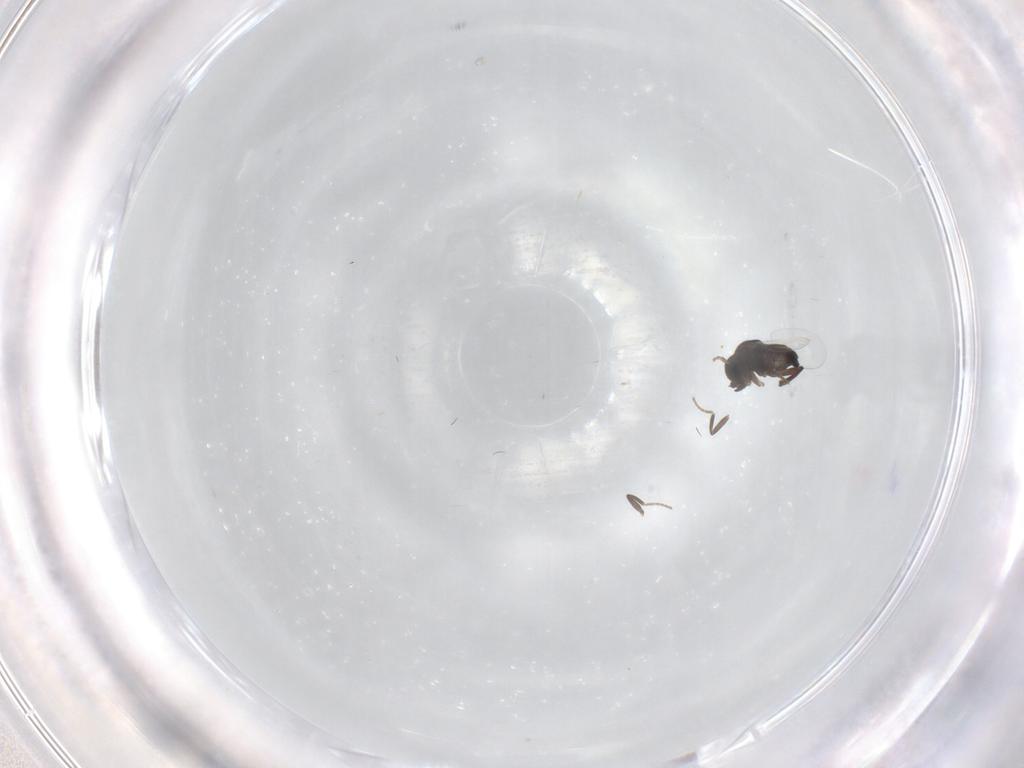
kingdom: Animalia
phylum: Arthropoda
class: Insecta
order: Diptera
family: Phoridae
